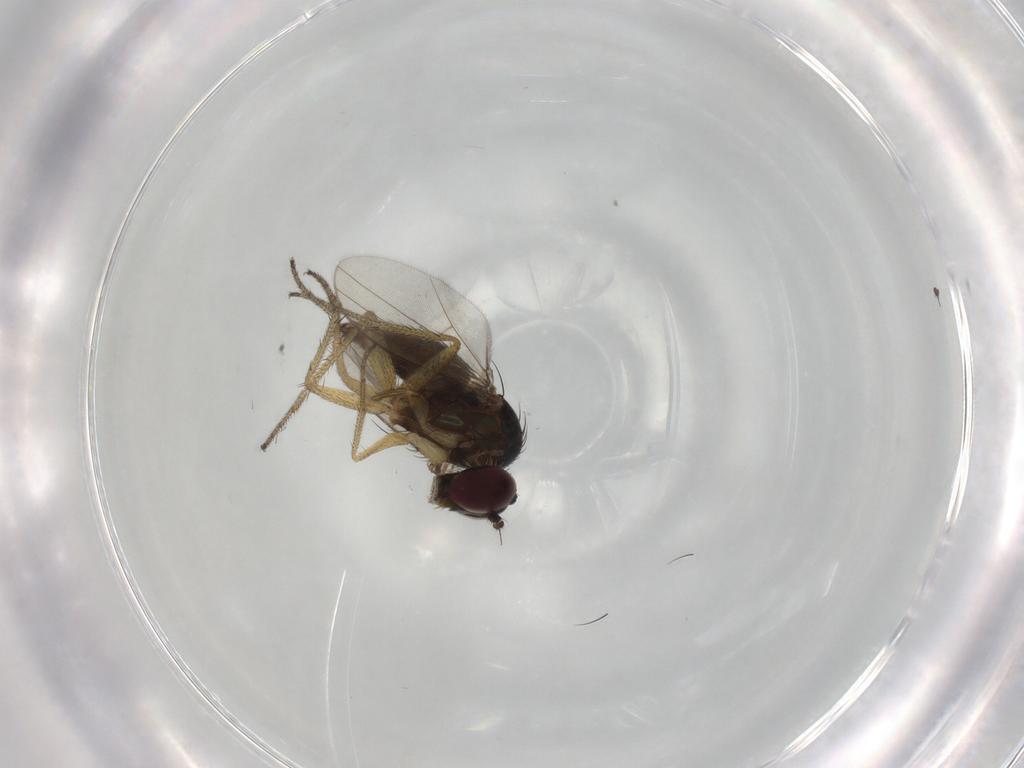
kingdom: Animalia
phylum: Arthropoda
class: Insecta
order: Diptera
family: Dolichopodidae
